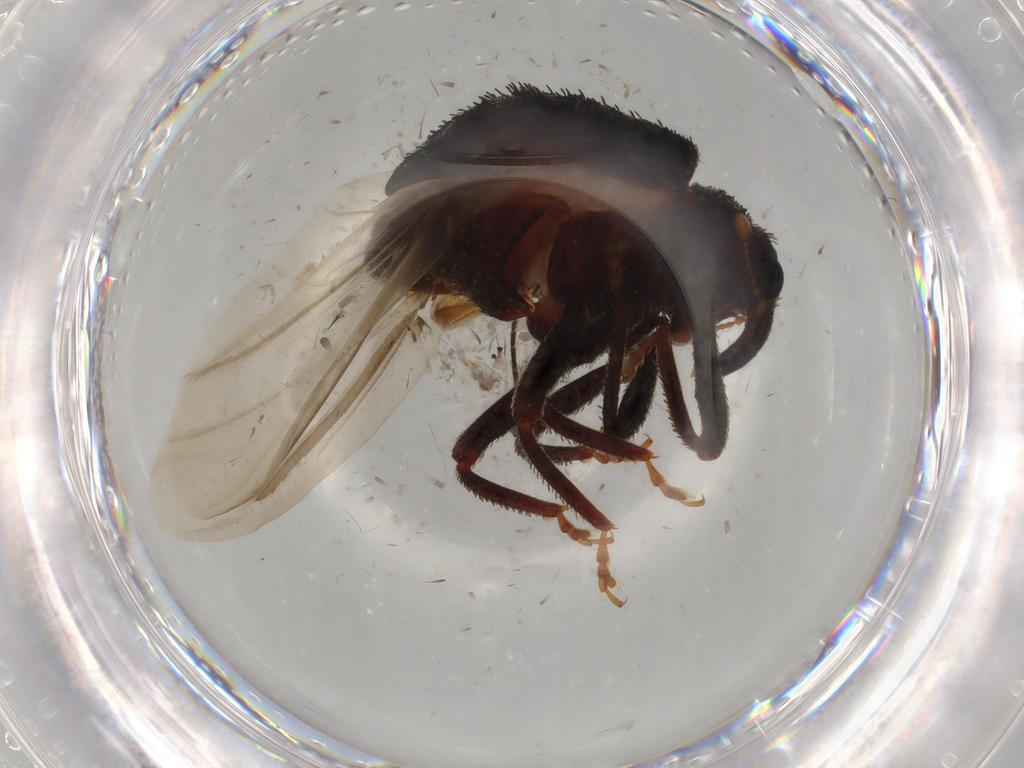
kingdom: Animalia
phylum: Arthropoda
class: Insecta
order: Coleoptera
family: Curculionidae
